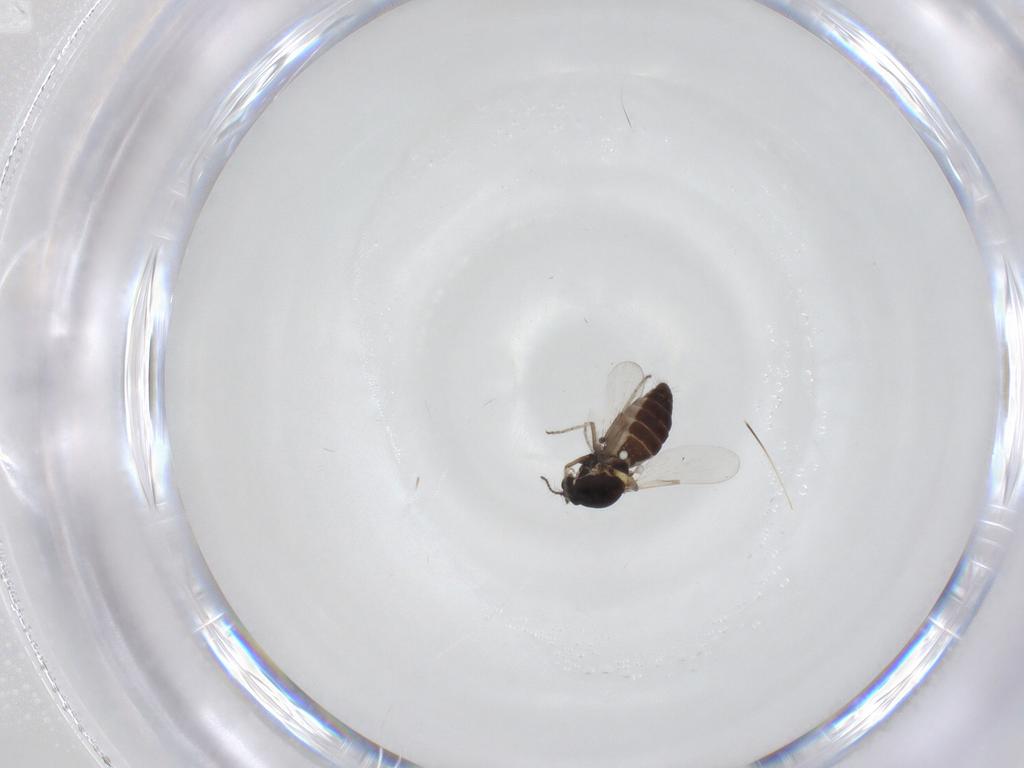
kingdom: Animalia
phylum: Arthropoda
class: Insecta
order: Diptera
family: Ceratopogonidae
